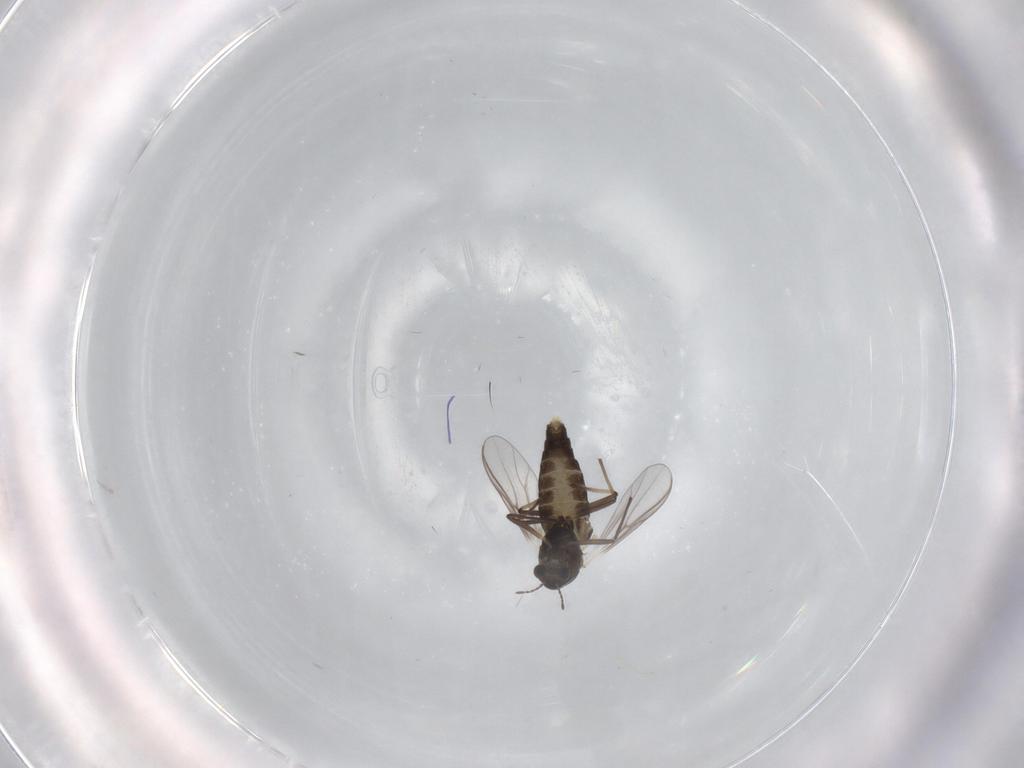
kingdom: Animalia
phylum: Arthropoda
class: Insecta
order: Diptera
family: Chironomidae
